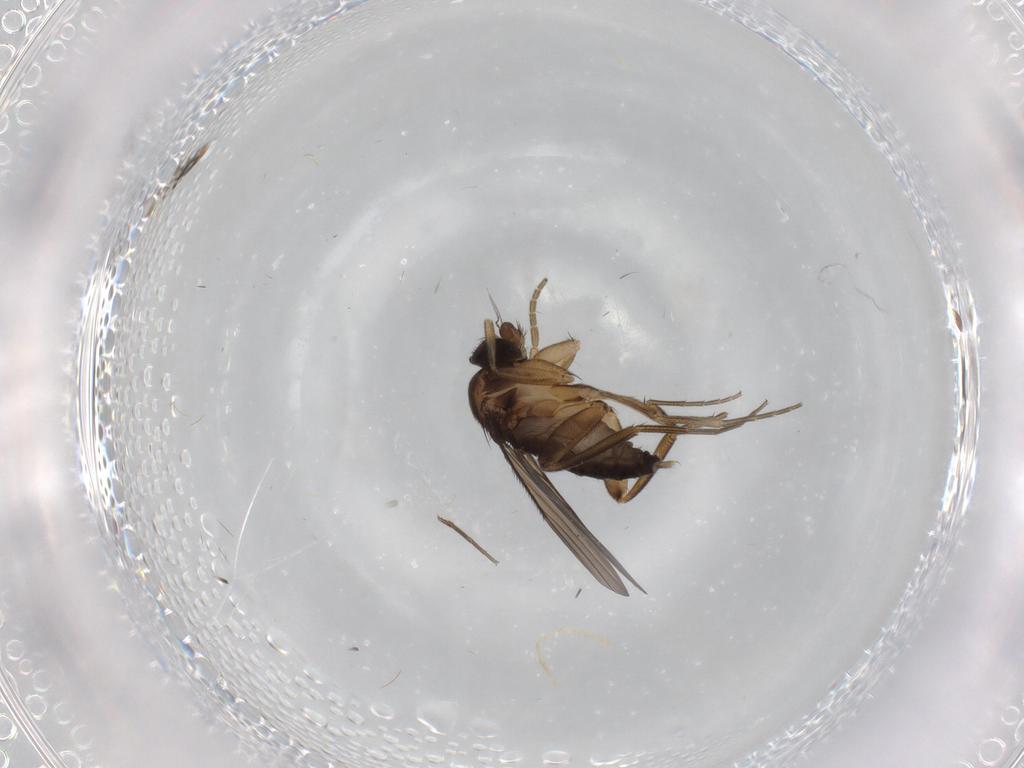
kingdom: Animalia
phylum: Arthropoda
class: Insecta
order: Diptera
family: Phoridae
